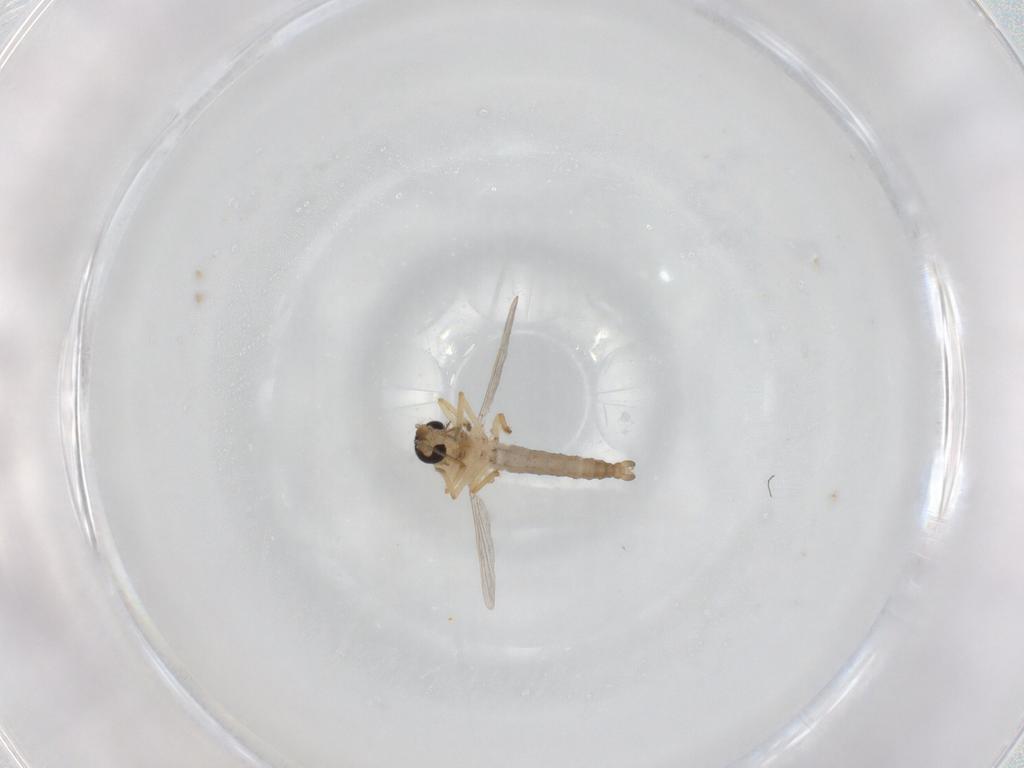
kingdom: Animalia
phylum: Arthropoda
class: Insecta
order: Diptera
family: Ceratopogonidae
